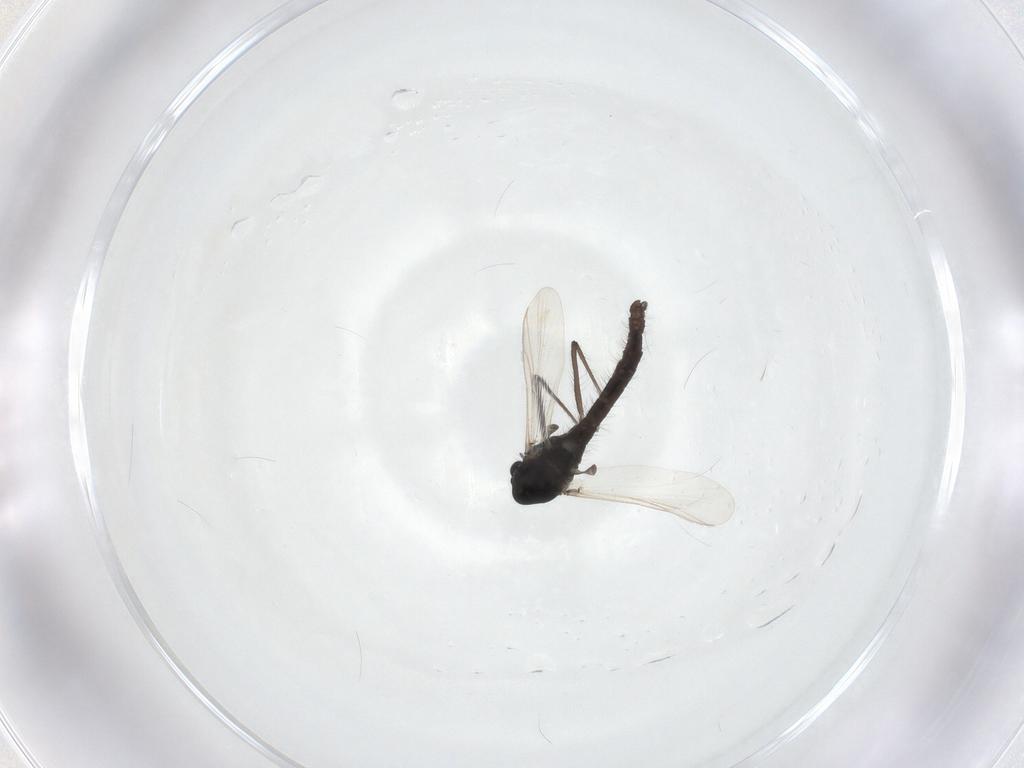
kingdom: Animalia
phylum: Arthropoda
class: Insecta
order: Diptera
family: Chironomidae
